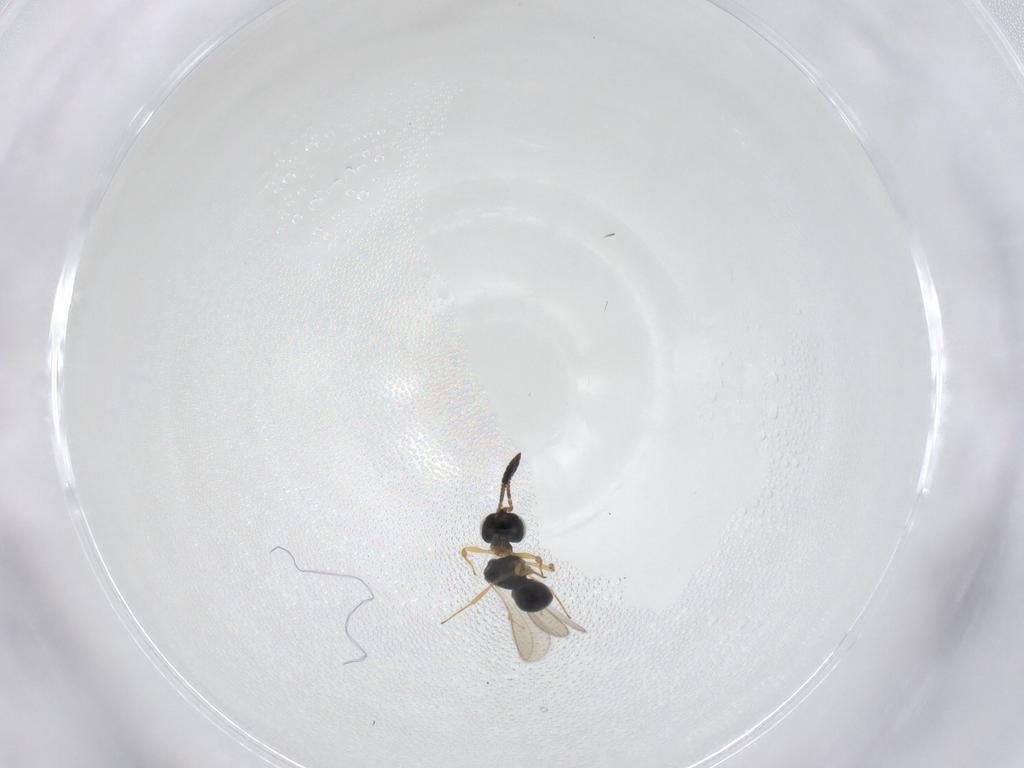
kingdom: Animalia
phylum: Arthropoda
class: Insecta
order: Hymenoptera
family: Scelionidae
